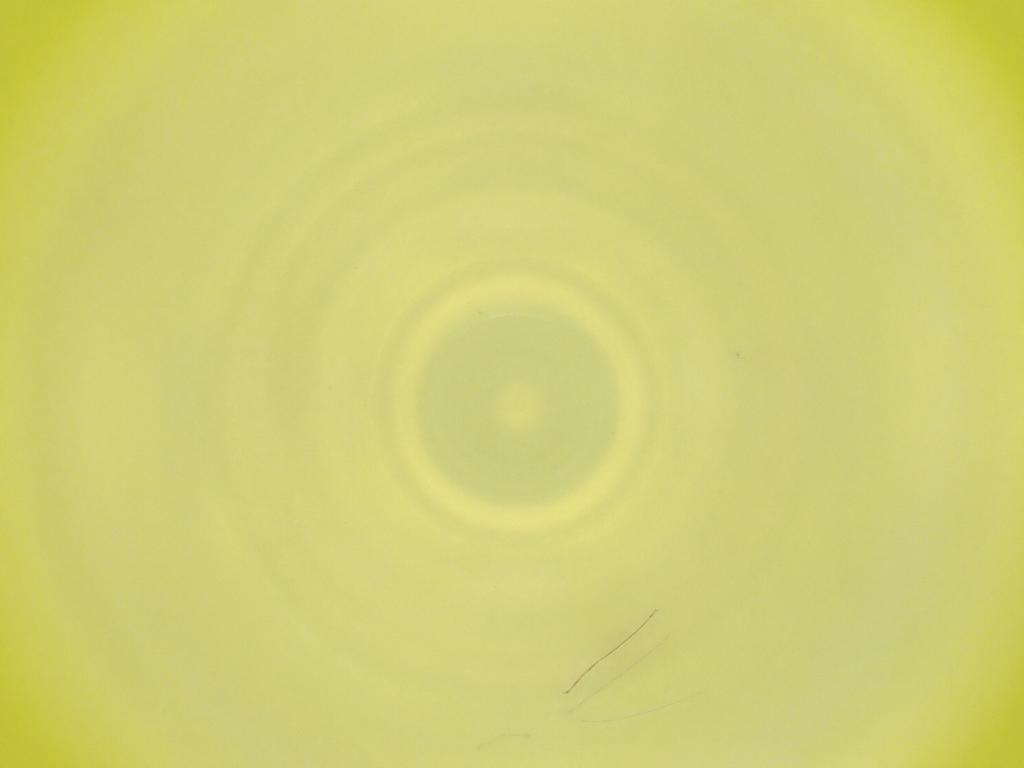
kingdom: Animalia
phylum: Arthropoda
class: Insecta
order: Diptera
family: Cecidomyiidae
